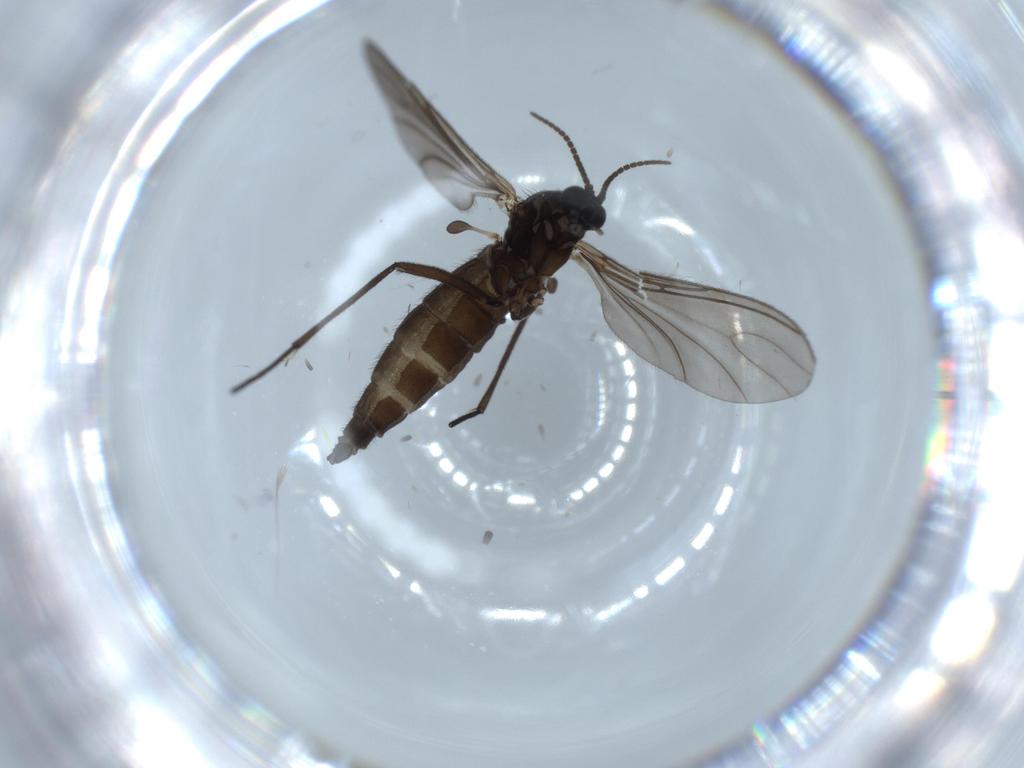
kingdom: Animalia
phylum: Arthropoda
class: Insecta
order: Diptera
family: Sciaridae
